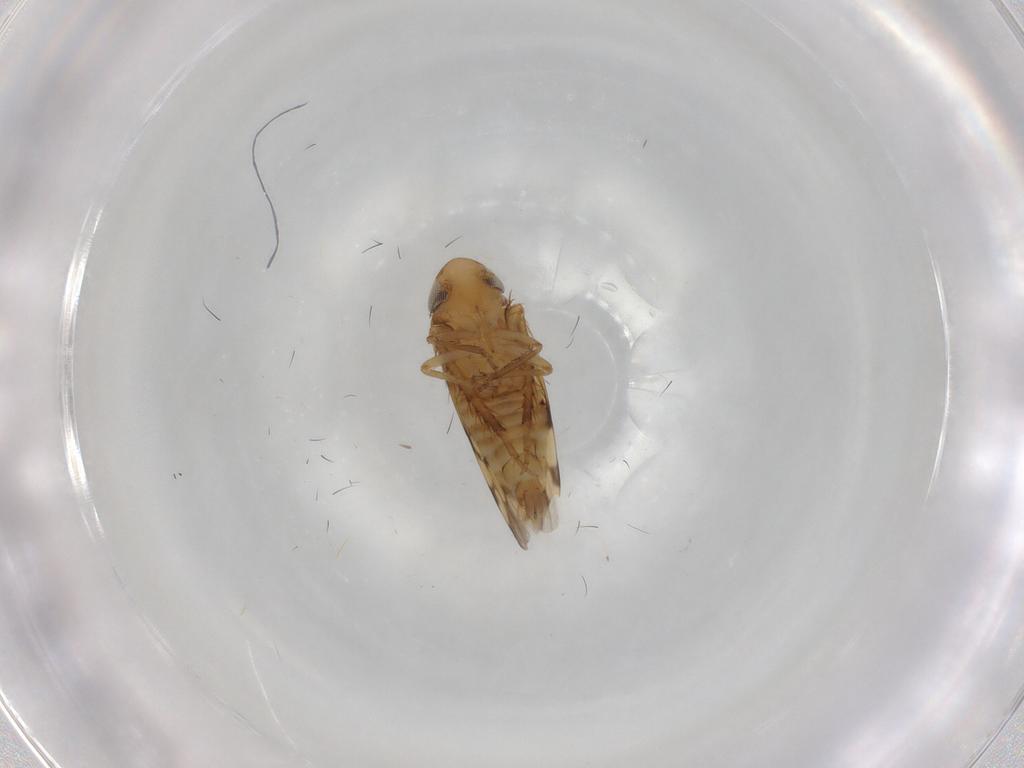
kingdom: Animalia
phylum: Arthropoda
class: Insecta
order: Hemiptera
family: Cicadellidae
